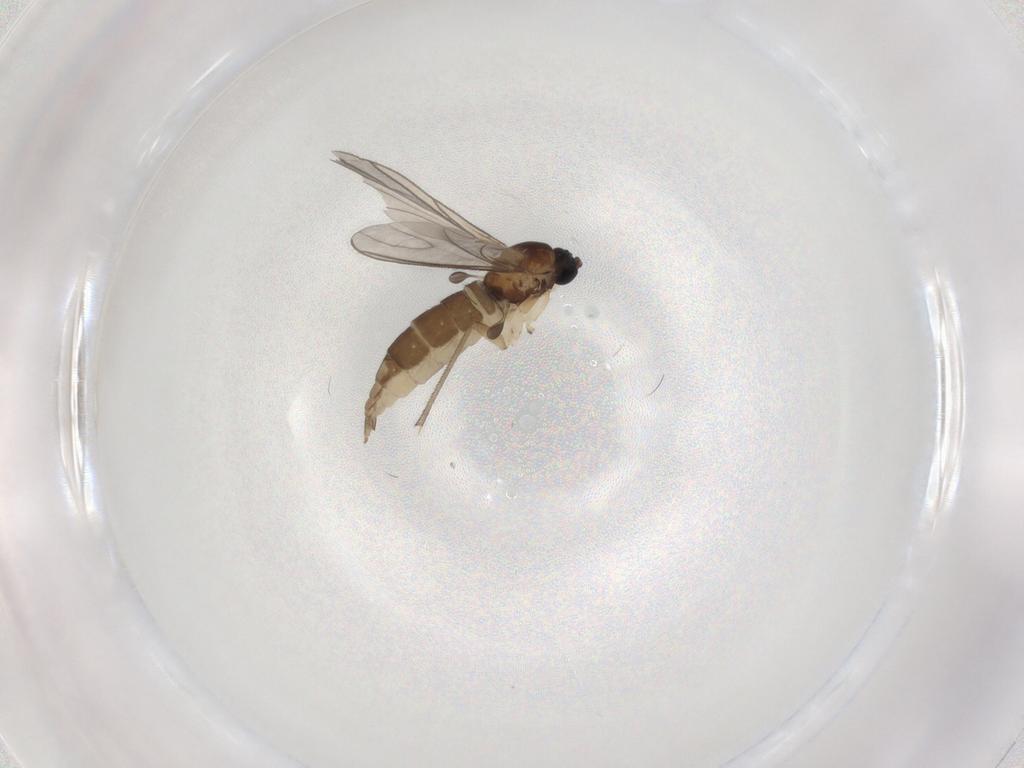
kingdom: Animalia
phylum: Arthropoda
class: Insecta
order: Diptera
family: Sciaridae
